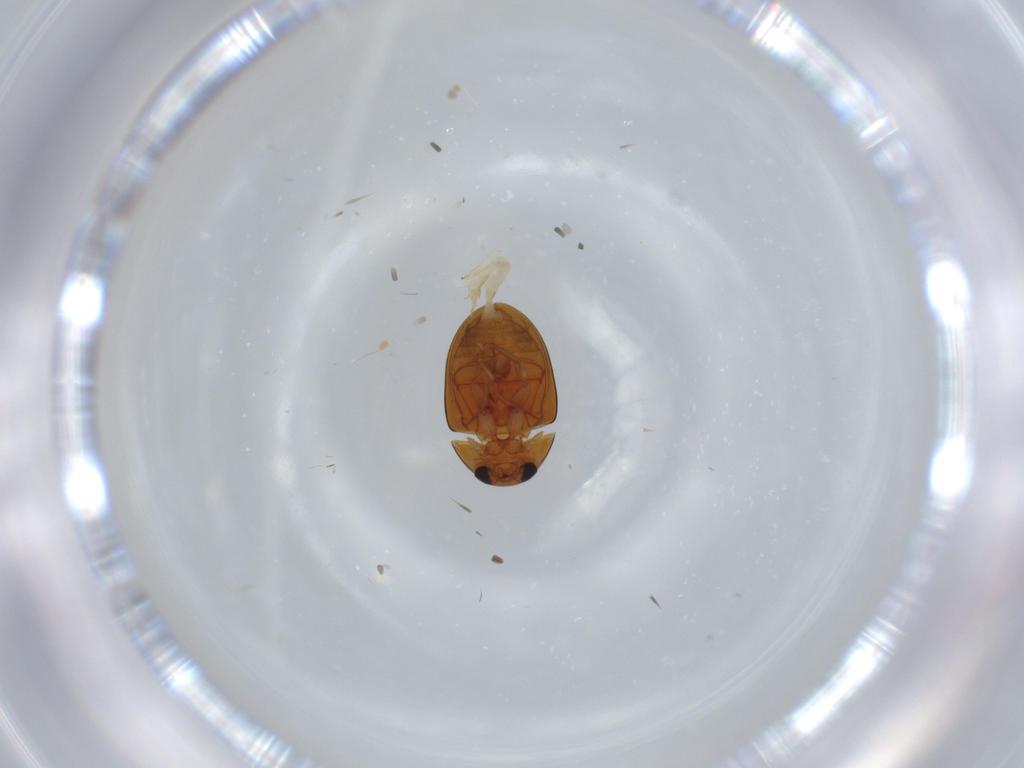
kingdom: Animalia
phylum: Arthropoda
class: Insecta
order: Coleoptera
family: Phalacridae
